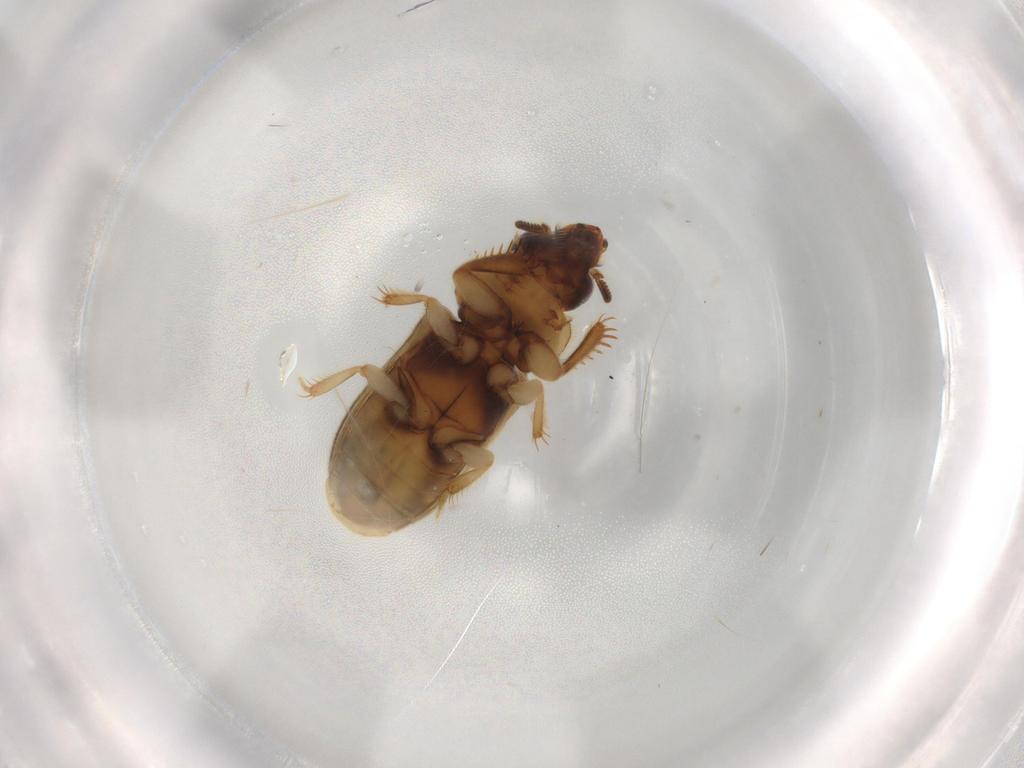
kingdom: Animalia
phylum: Arthropoda
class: Insecta
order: Coleoptera
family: Heteroceridae
